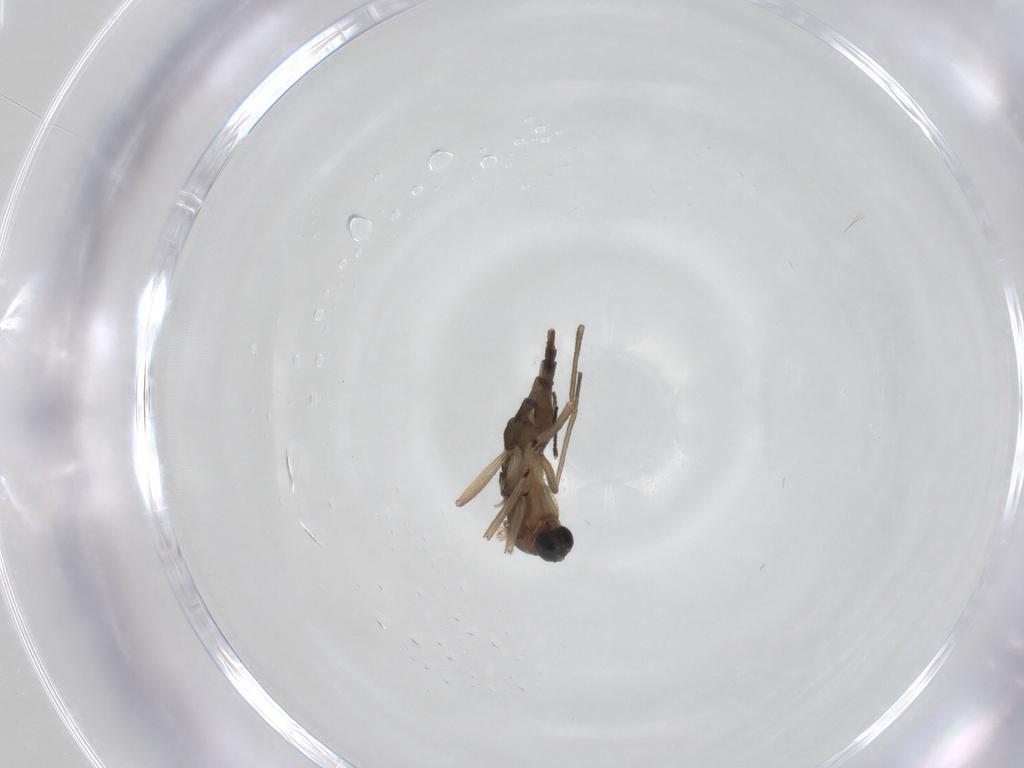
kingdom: Animalia
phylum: Arthropoda
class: Insecta
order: Diptera
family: Sciaridae
